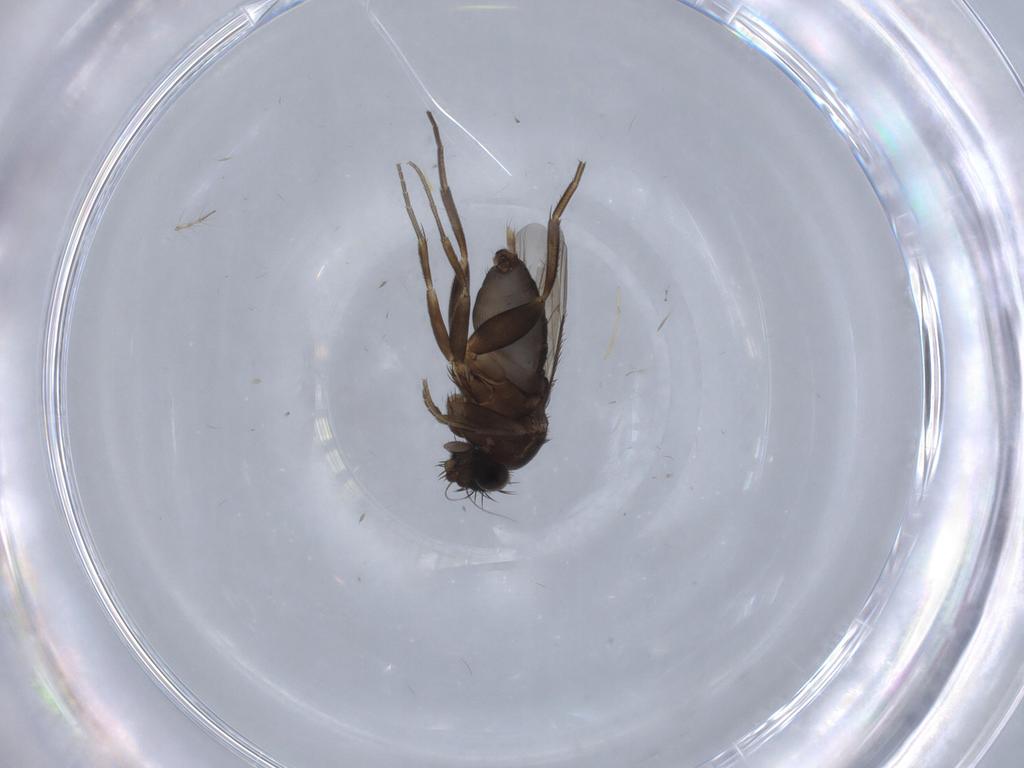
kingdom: Animalia
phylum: Arthropoda
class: Insecta
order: Diptera
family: Phoridae
